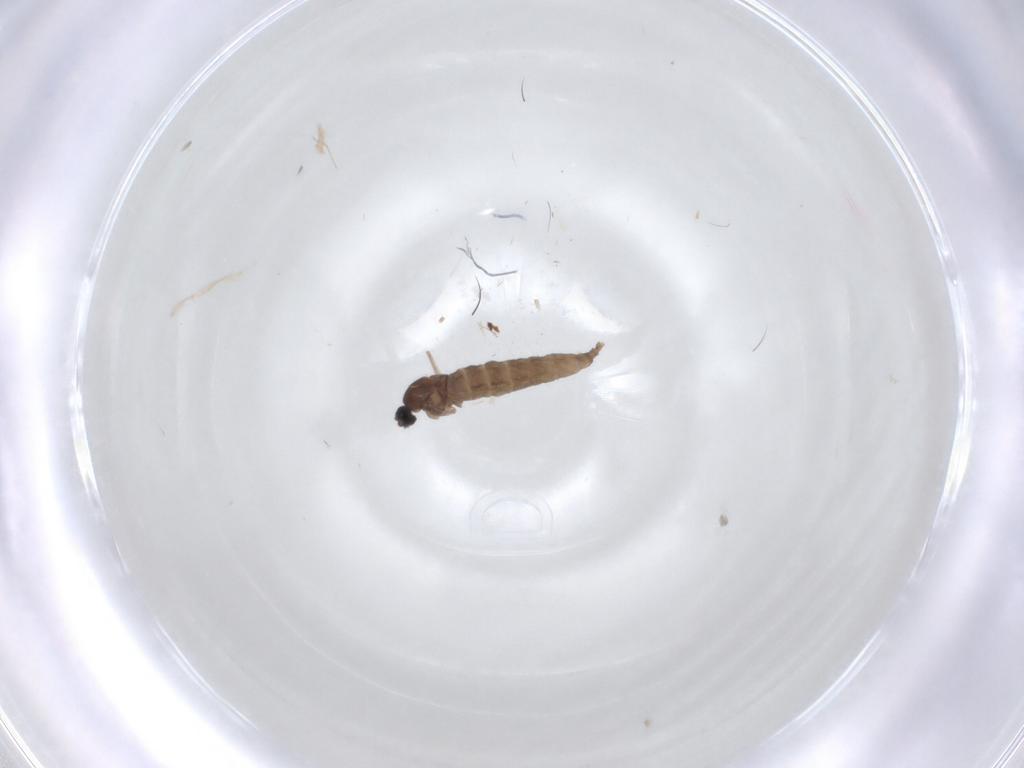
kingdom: Animalia
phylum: Arthropoda
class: Insecta
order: Diptera
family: Cecidomyiidae
